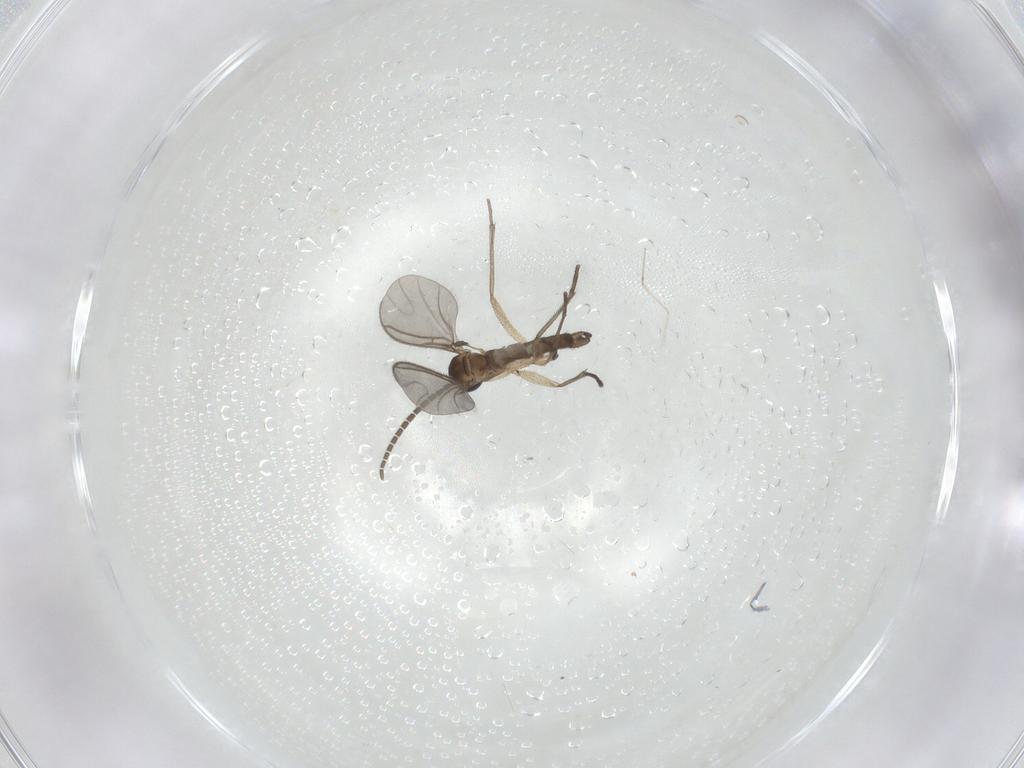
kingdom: Animalia
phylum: Arthropoda
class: Insecta
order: Diptera
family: Sciaridae
